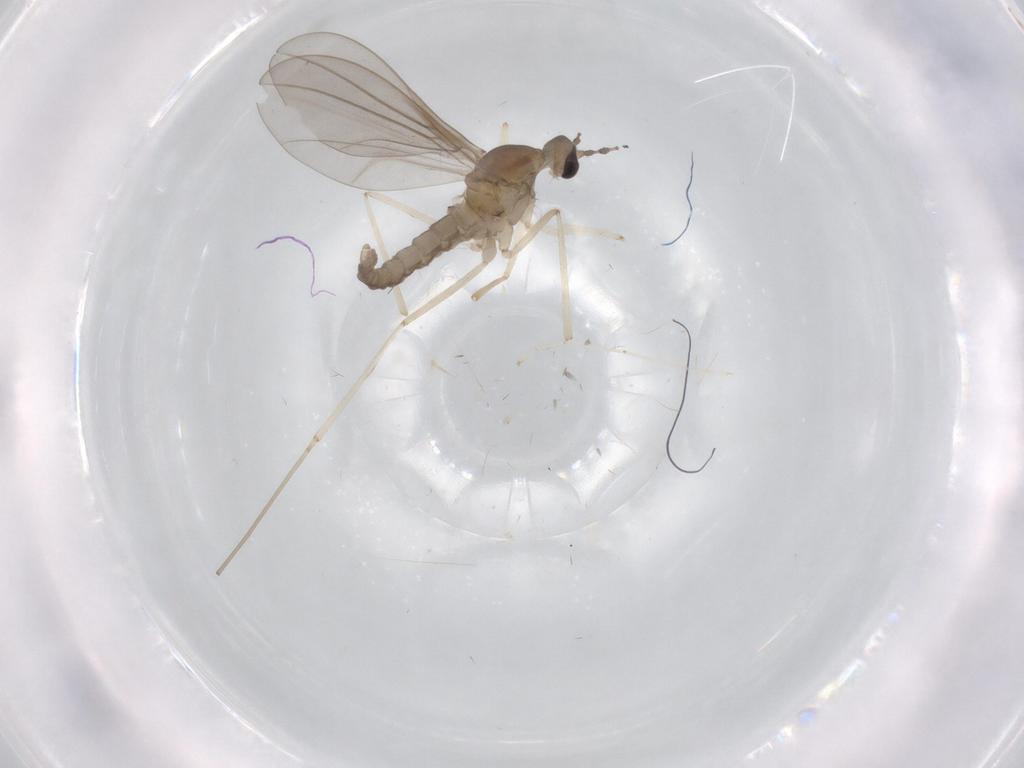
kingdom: Animalia
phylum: Arthropoda
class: Insecta
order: Diptera
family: Cecidomyiidae
